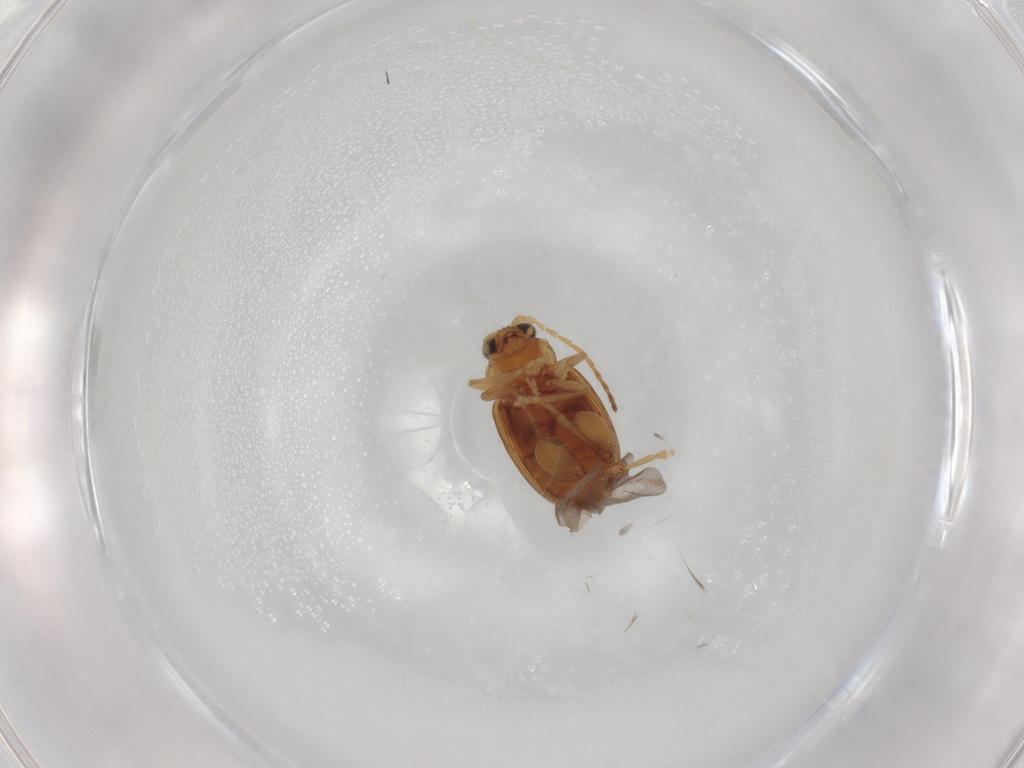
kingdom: Animalia
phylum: Arthropoda
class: Insecta
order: Coleoptera
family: Chrysomelidae
